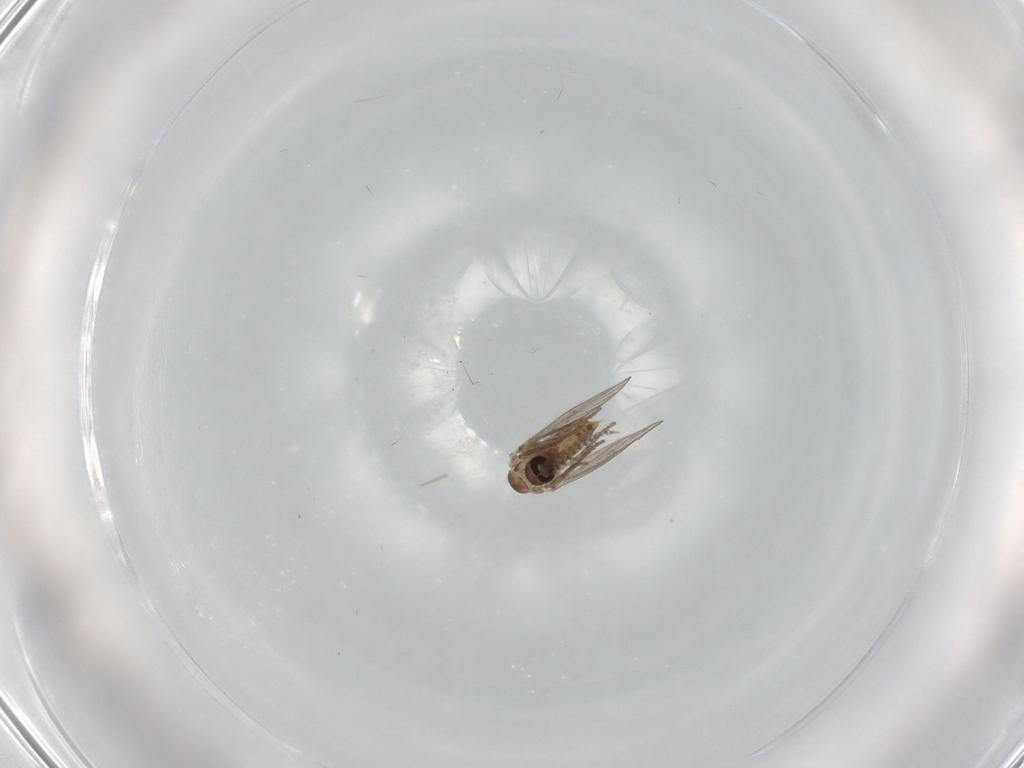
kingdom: Animalia
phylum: Arthropoda
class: Insecta
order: Diptera
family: Psychodidae
